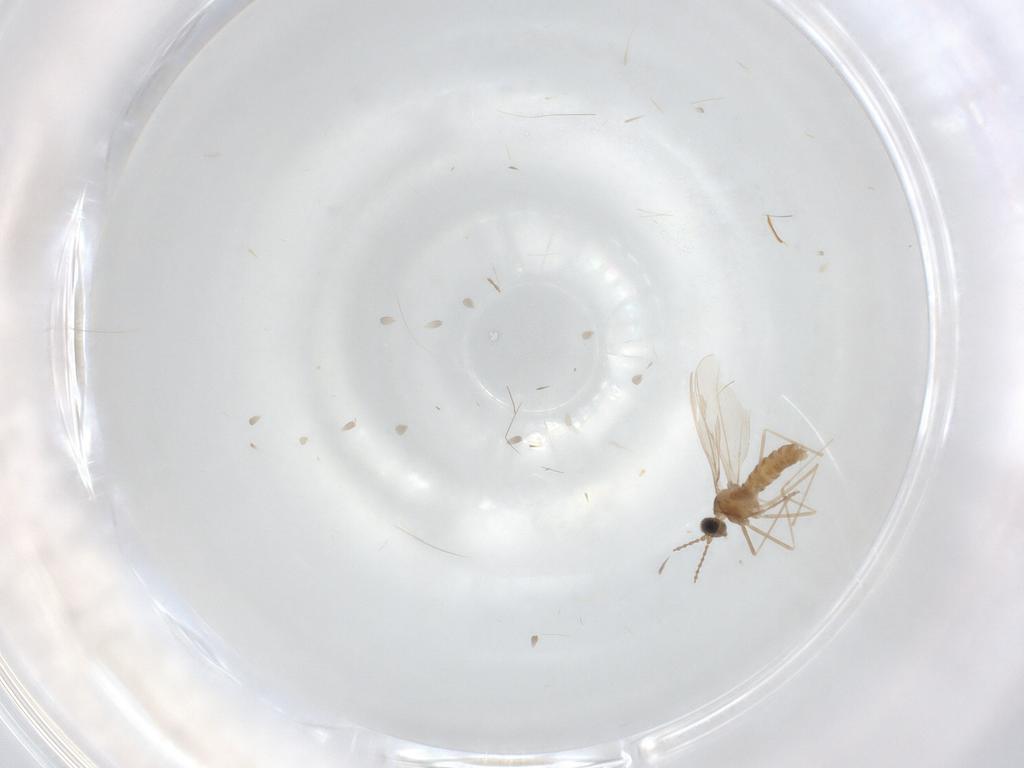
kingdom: Animalia
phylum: Arthropoda
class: Insecta
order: Diptera
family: Cecidomyiidae
